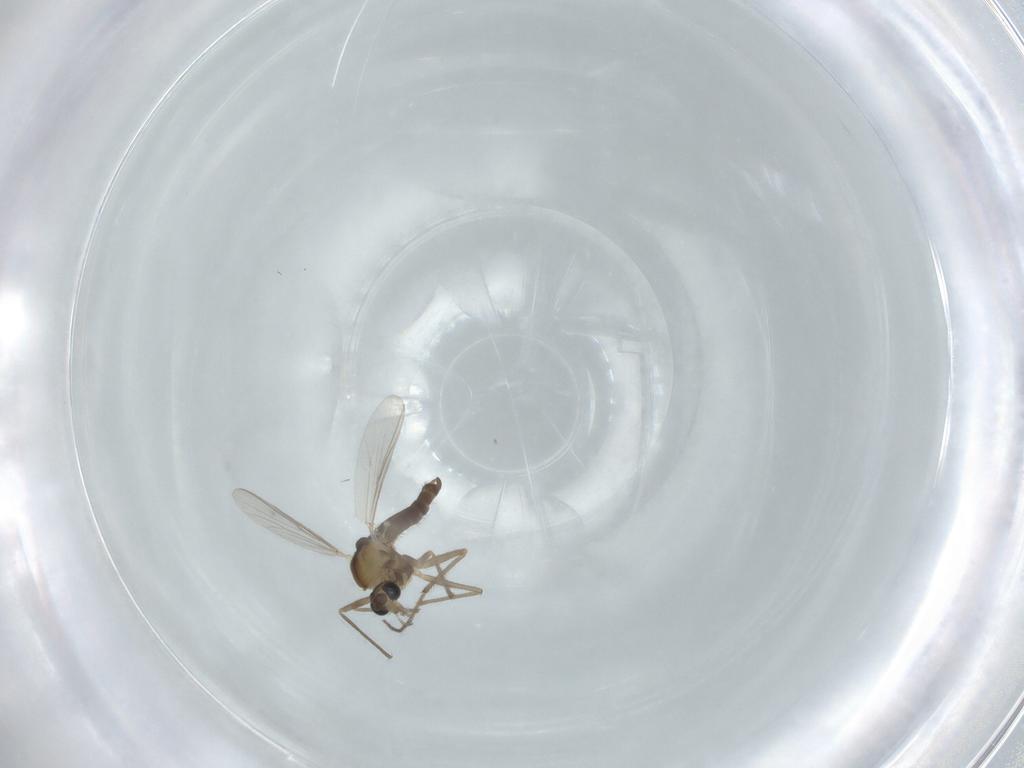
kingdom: Animalia
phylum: Arthropoda
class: Insecta
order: Diptera
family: Chironomidae
